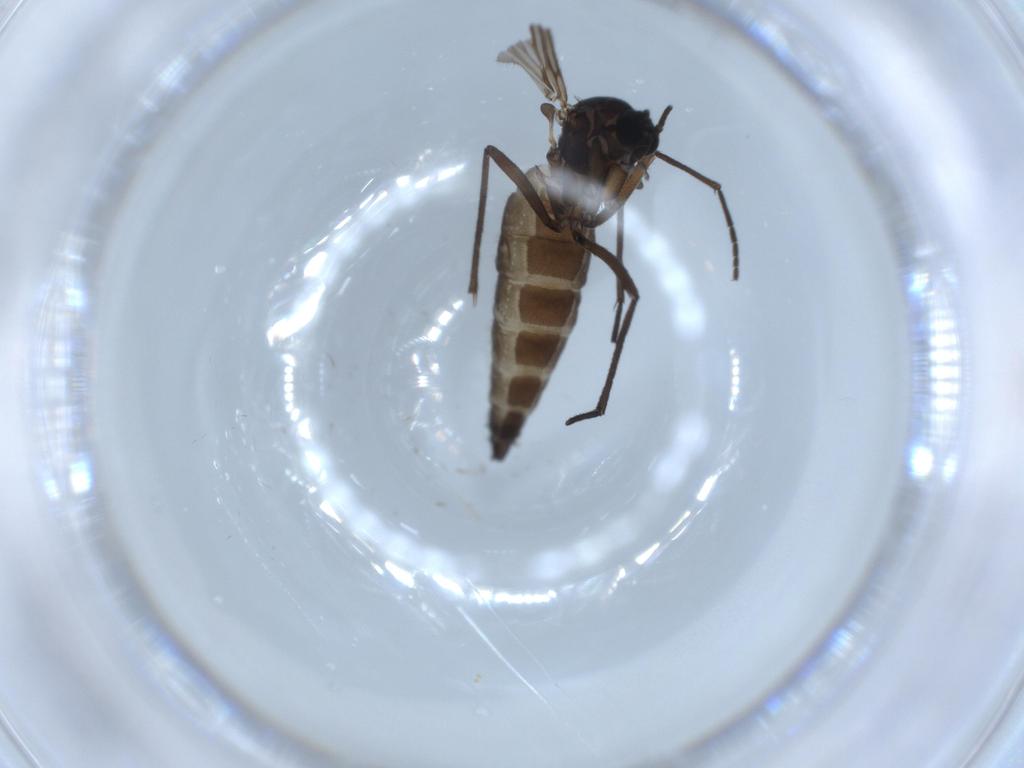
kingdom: Animalia
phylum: Arthropoda
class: Insecta
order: Diptera
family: Sciaridae
